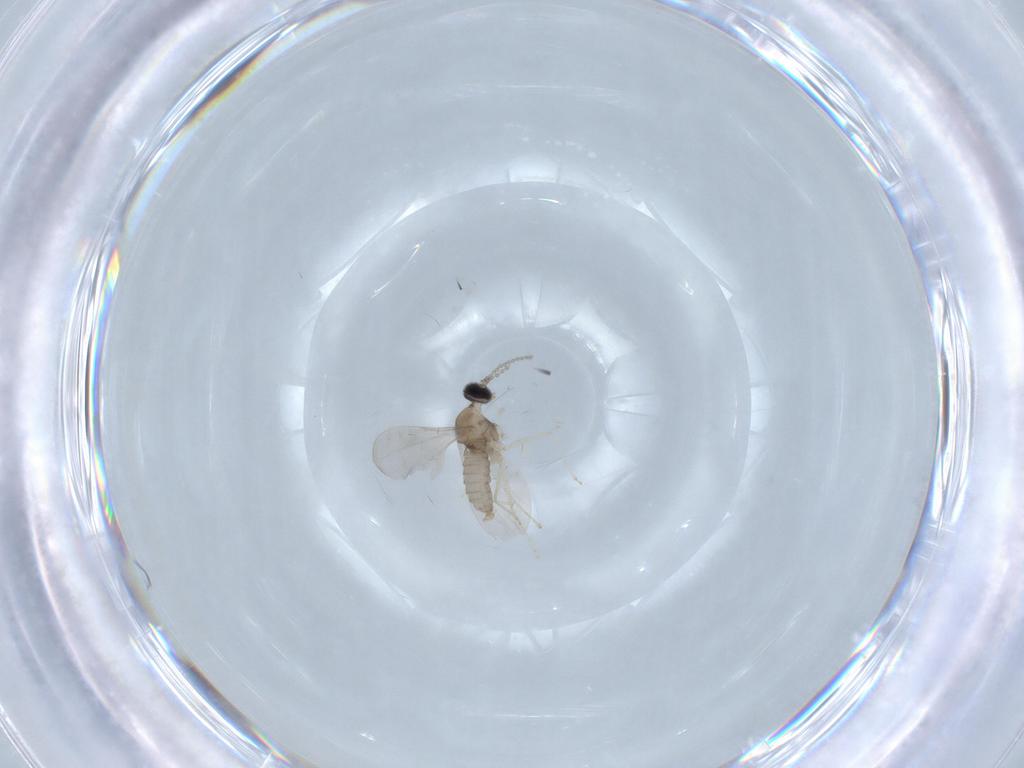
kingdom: Animalia
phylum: Arthropoda
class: Insecta
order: Diptera
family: Cecidomyiidae
